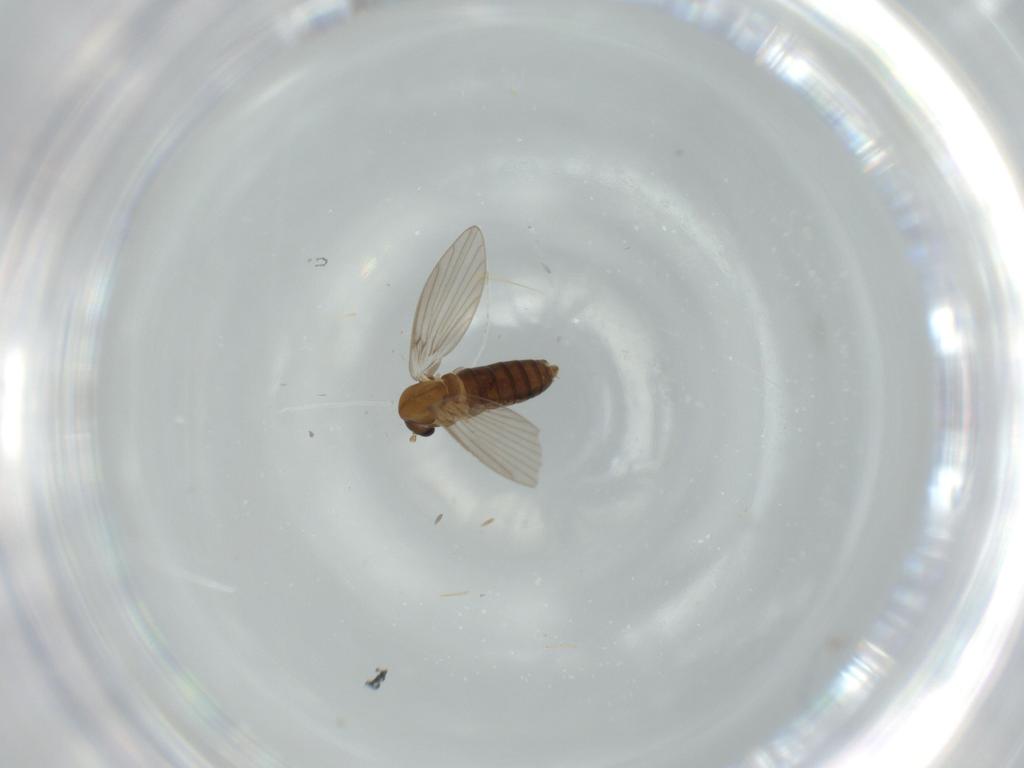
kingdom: Animalia
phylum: Arthropoda
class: Insecta
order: Diptera
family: Psychodidae
